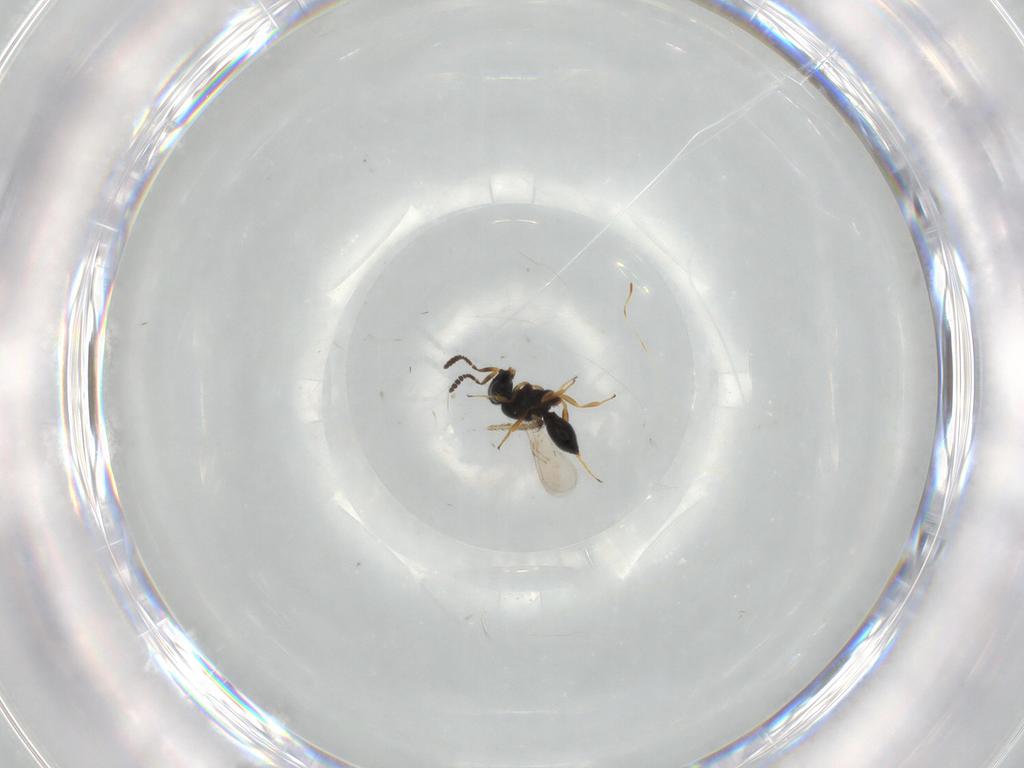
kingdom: Animalia
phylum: Arthropoda
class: Insecta
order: Hymenoptera
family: Scelionidae
